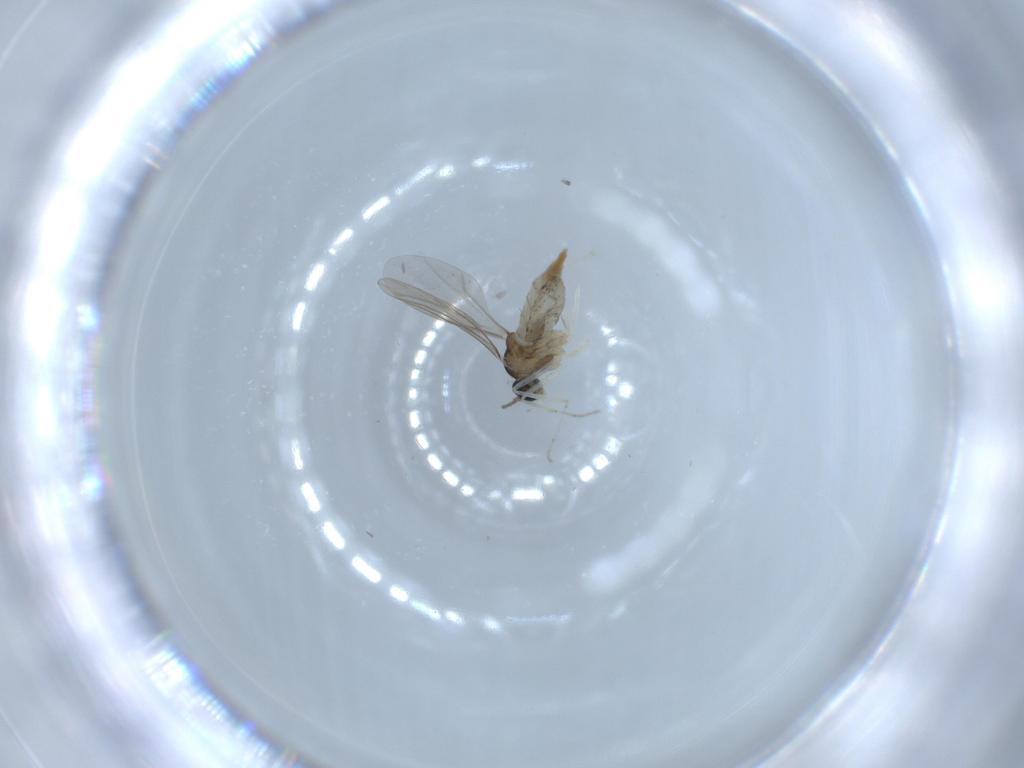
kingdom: Animalia
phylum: Arthropoda
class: Insecta
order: Diptera
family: Cecidomyiidae
